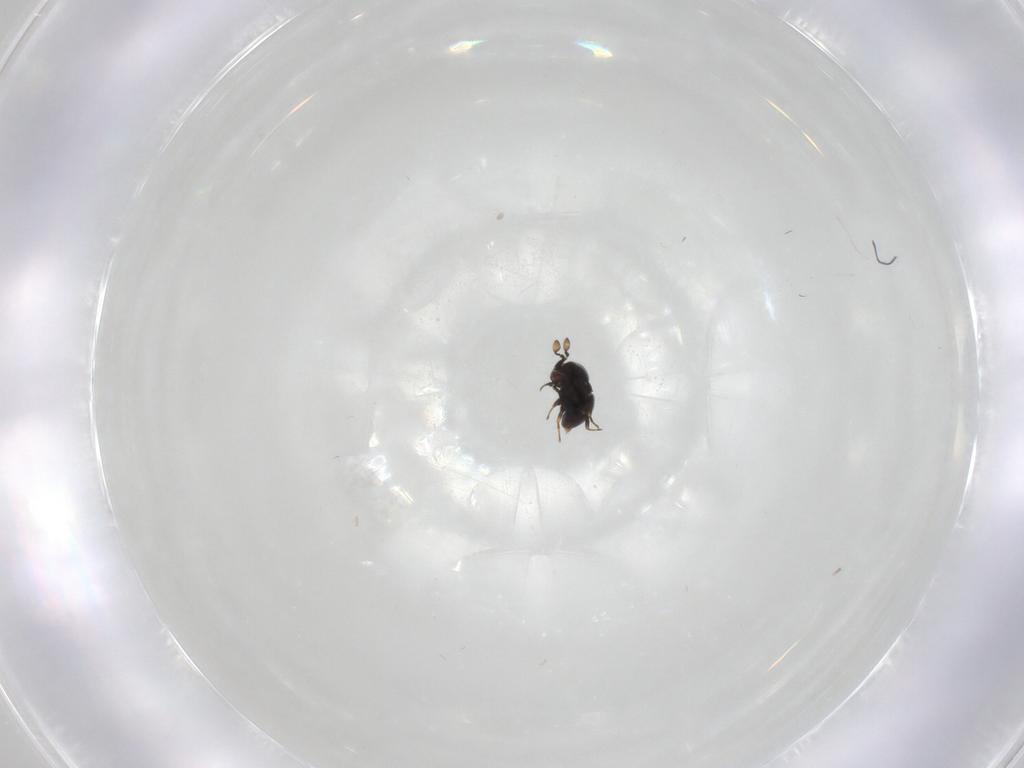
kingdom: Animalia
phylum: Arthropoda
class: Insecta
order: Hymenoptera
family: Scelionidae
